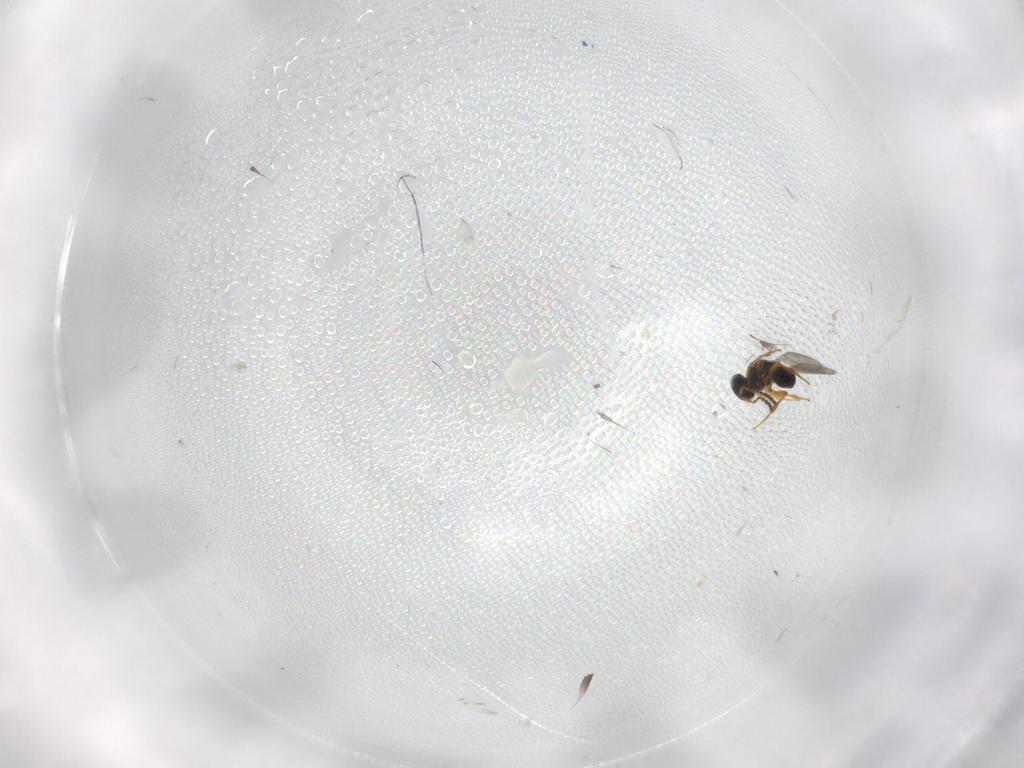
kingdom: Animalia
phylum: Arthropoda
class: Insecta
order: Hymenoptera
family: Platygastridae
